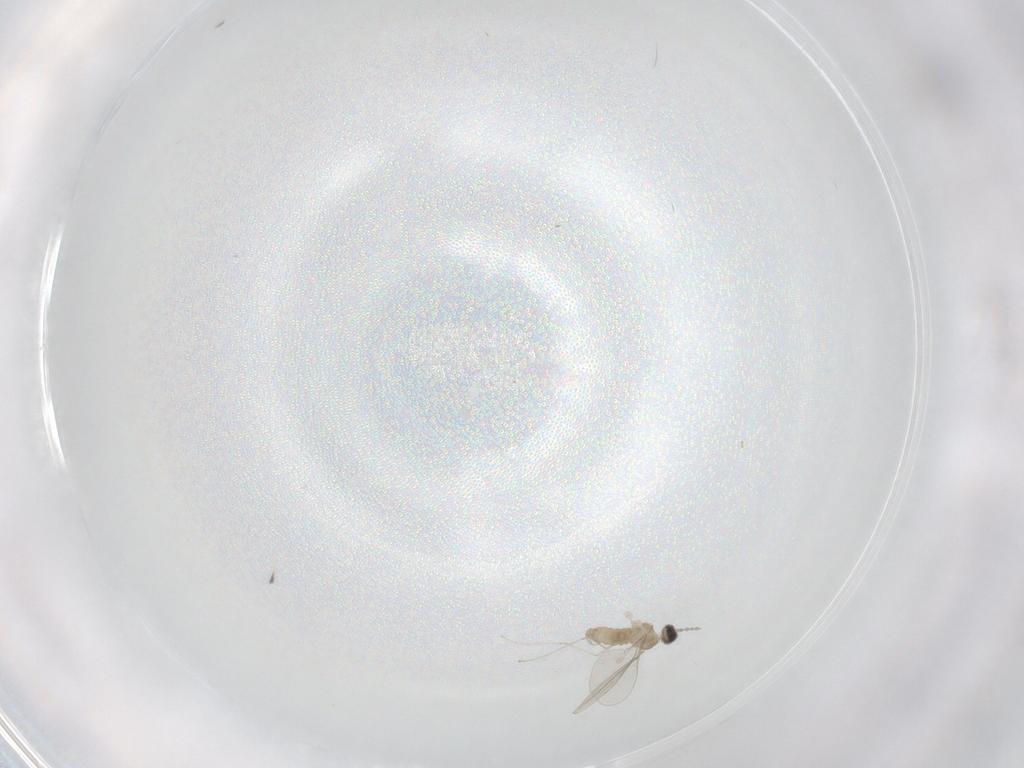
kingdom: Animalia
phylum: Arthropoda
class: Insecta
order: Diptera
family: Cecidomyiidae
